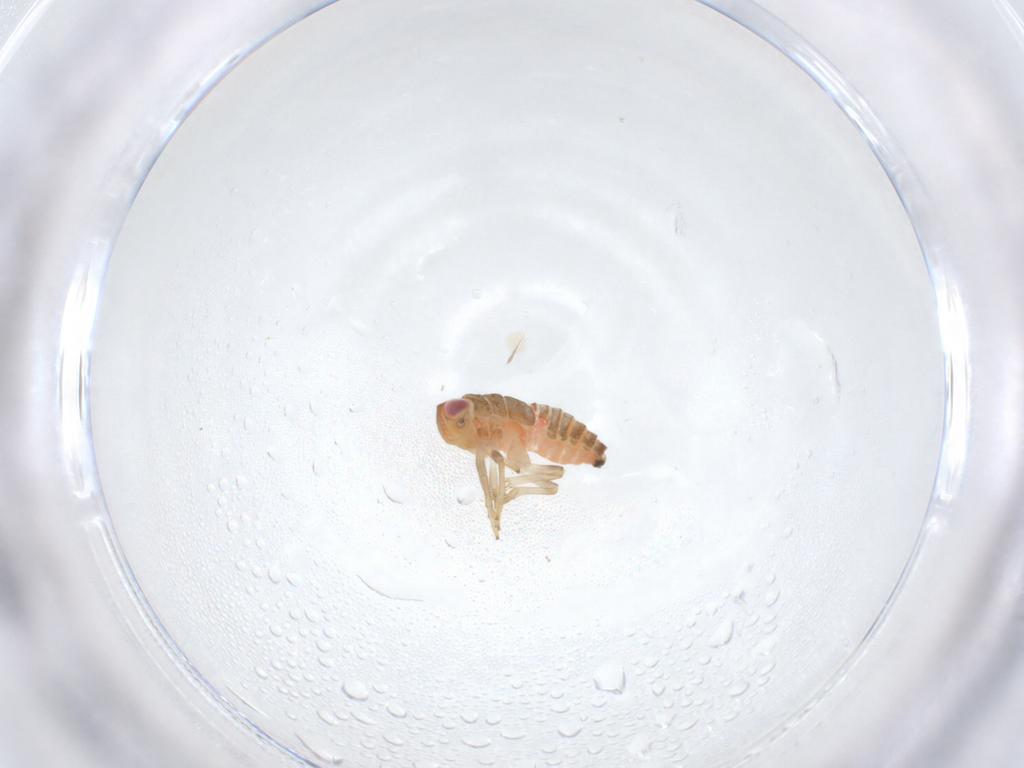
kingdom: Animalia
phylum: Arthropoda
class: Insecta
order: Hemiptera
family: Issidae
